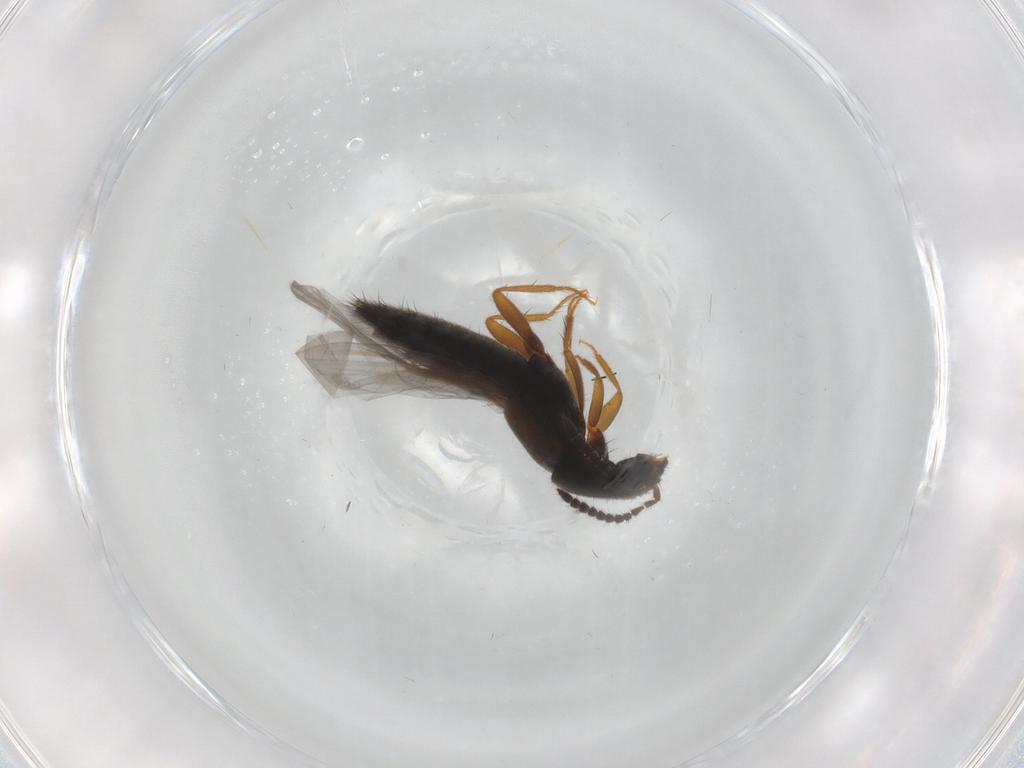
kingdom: Animalia
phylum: Arthropoda
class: Insecta
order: Coleoptera
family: Staphylinidae
